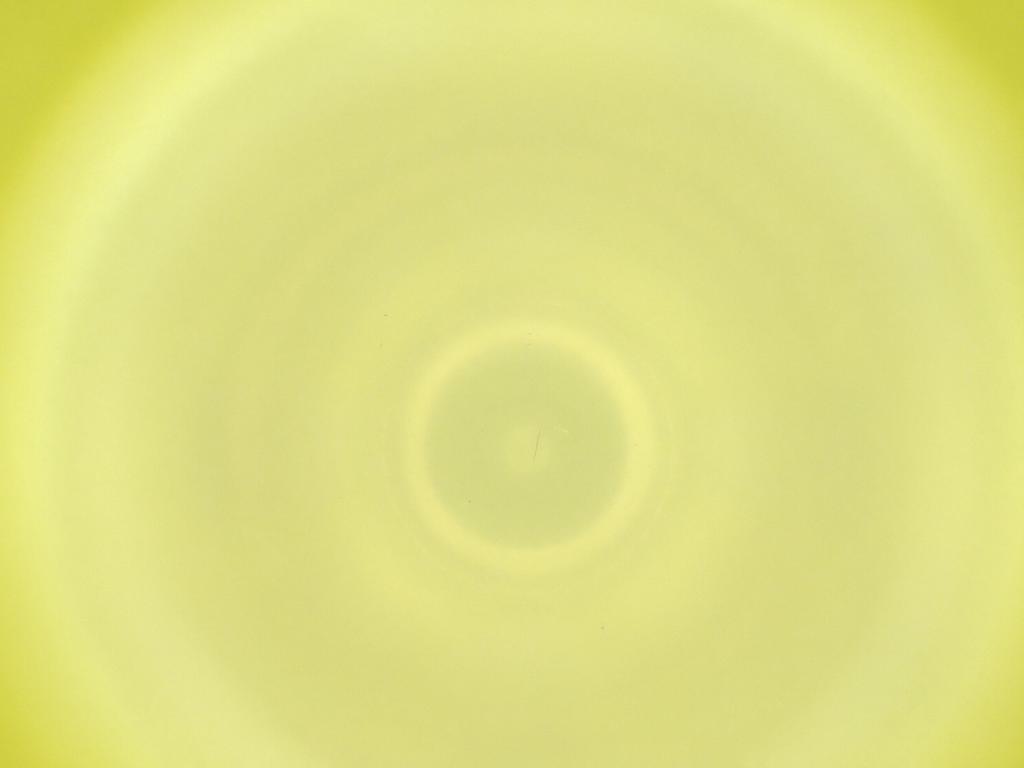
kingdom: Animalia
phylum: Arthropoda
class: Insecta
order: Diptera
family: Cecidomyiidae
